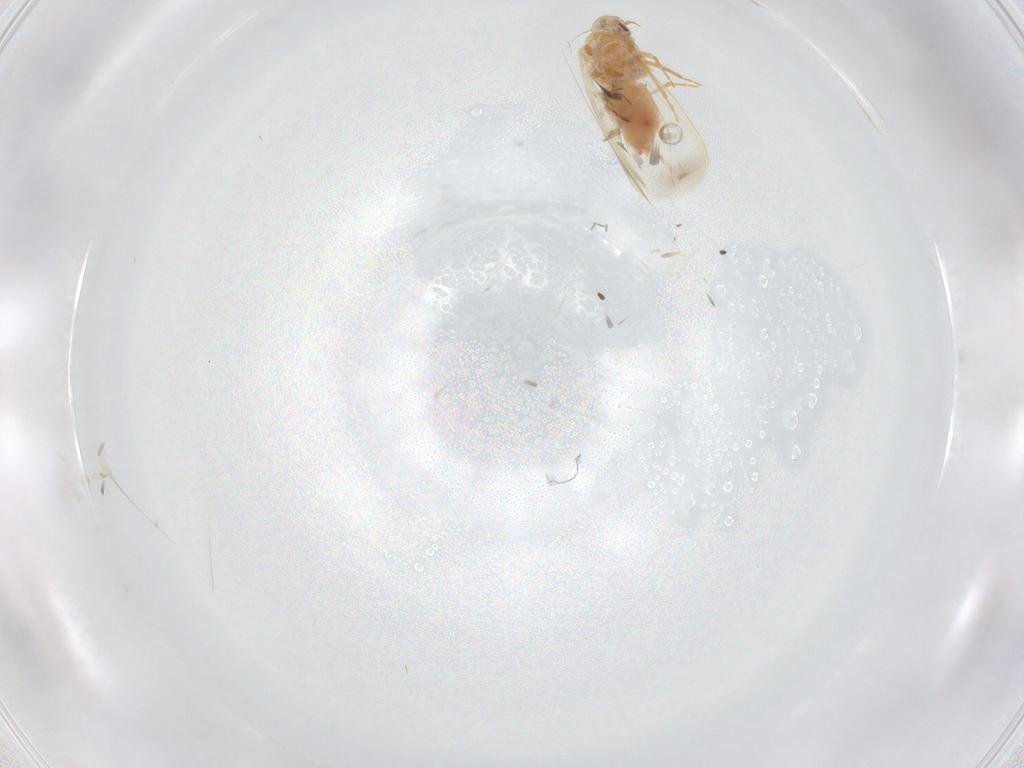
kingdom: Animalia
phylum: Arthropoda
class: Insecta
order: Hemiptera
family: Aleyrodidae
